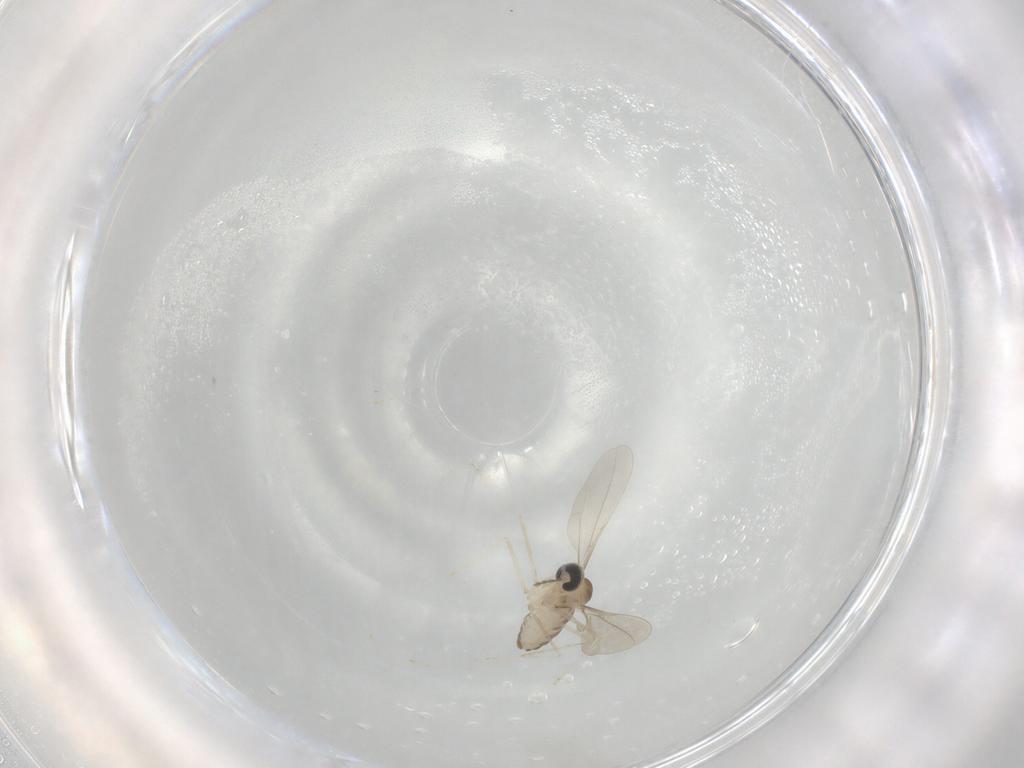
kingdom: Animalia
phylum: Arthropoda
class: Insecta
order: Diptera
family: Cecidomyiidae
